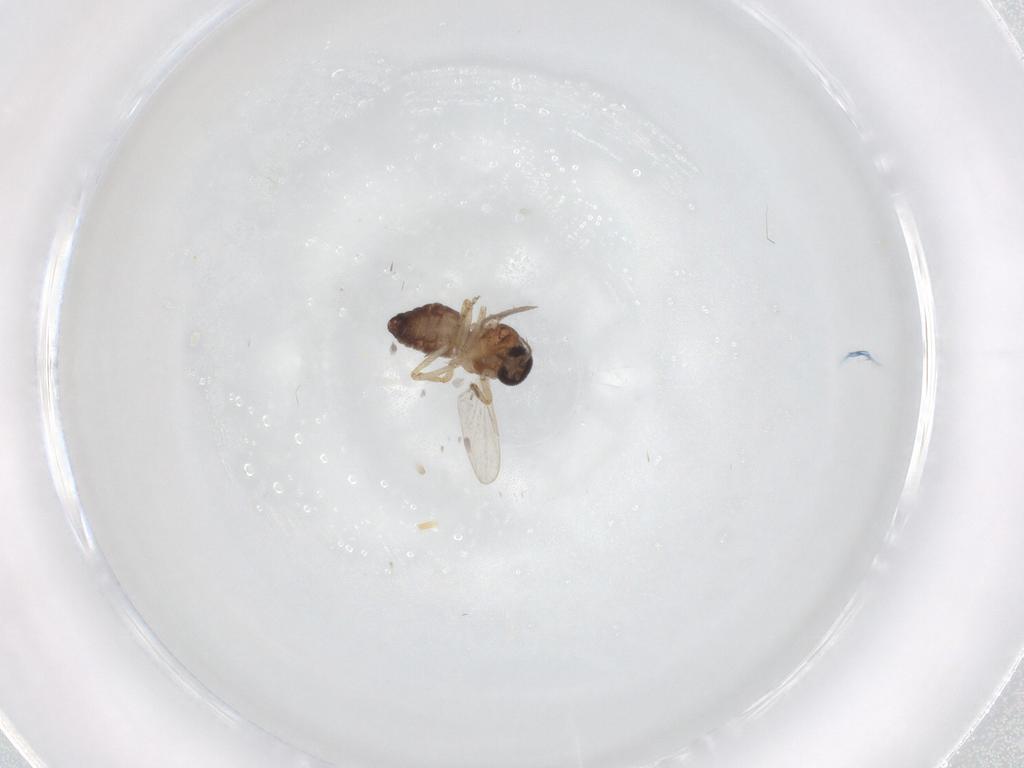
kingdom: Animalia
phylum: Arthropoda
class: Insecta
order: Diptera
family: Ceratopogonidae
